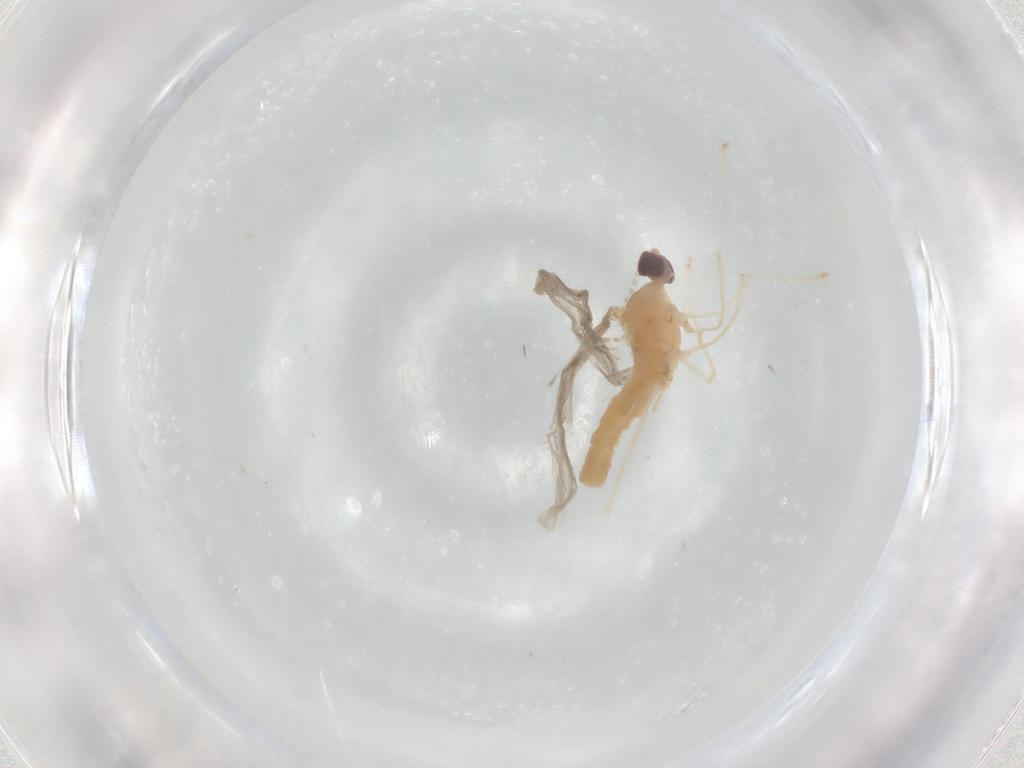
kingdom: Animalia
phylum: Arthropoda
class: Insecta
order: Diptera
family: Cecidomyiidae
